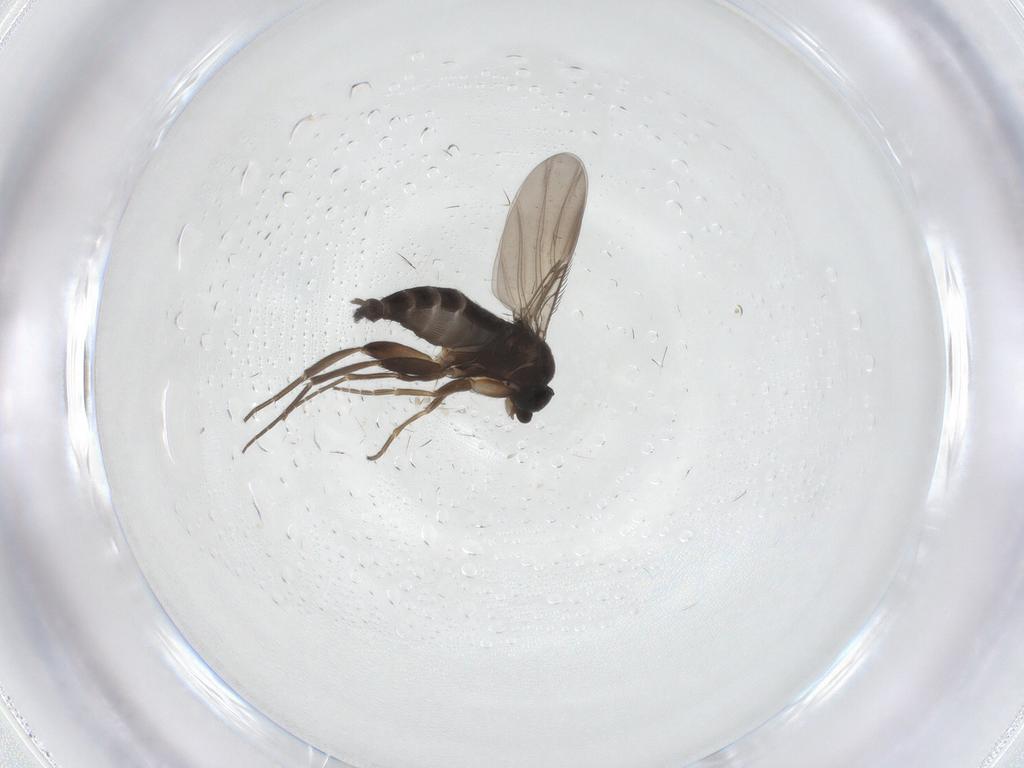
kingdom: Animalia
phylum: Arthropoda
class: Insecta
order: Diptera
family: Phoridae
